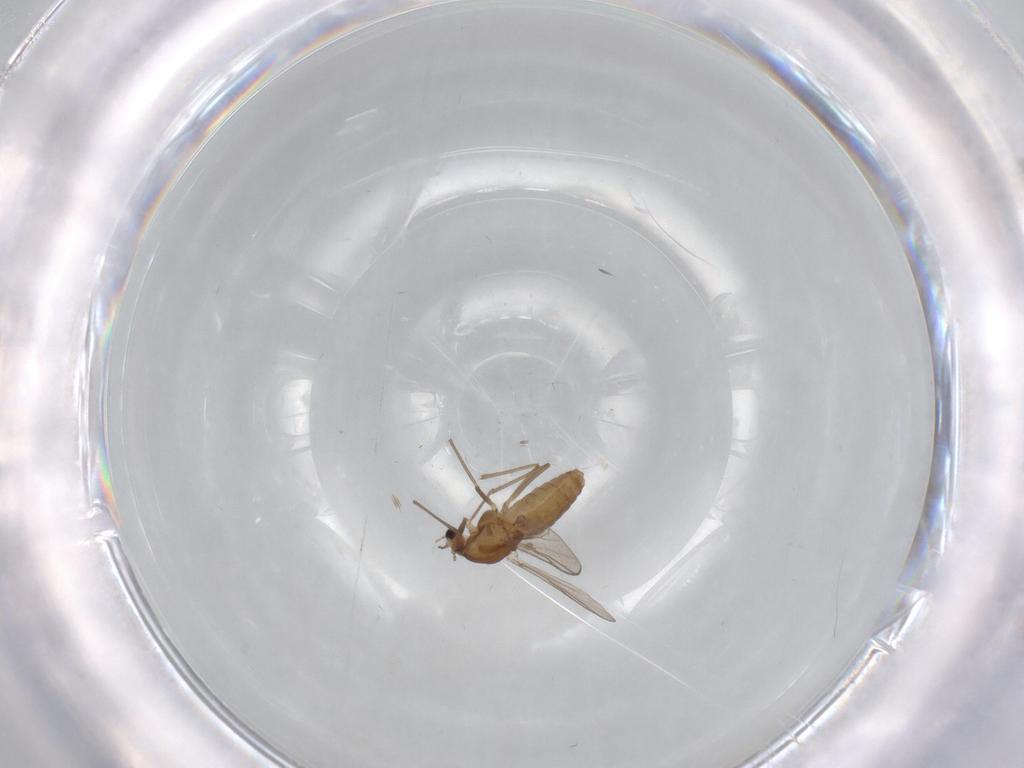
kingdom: Animalia
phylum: Arthropoda
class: Insecta
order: Diptera
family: Chironomidae
